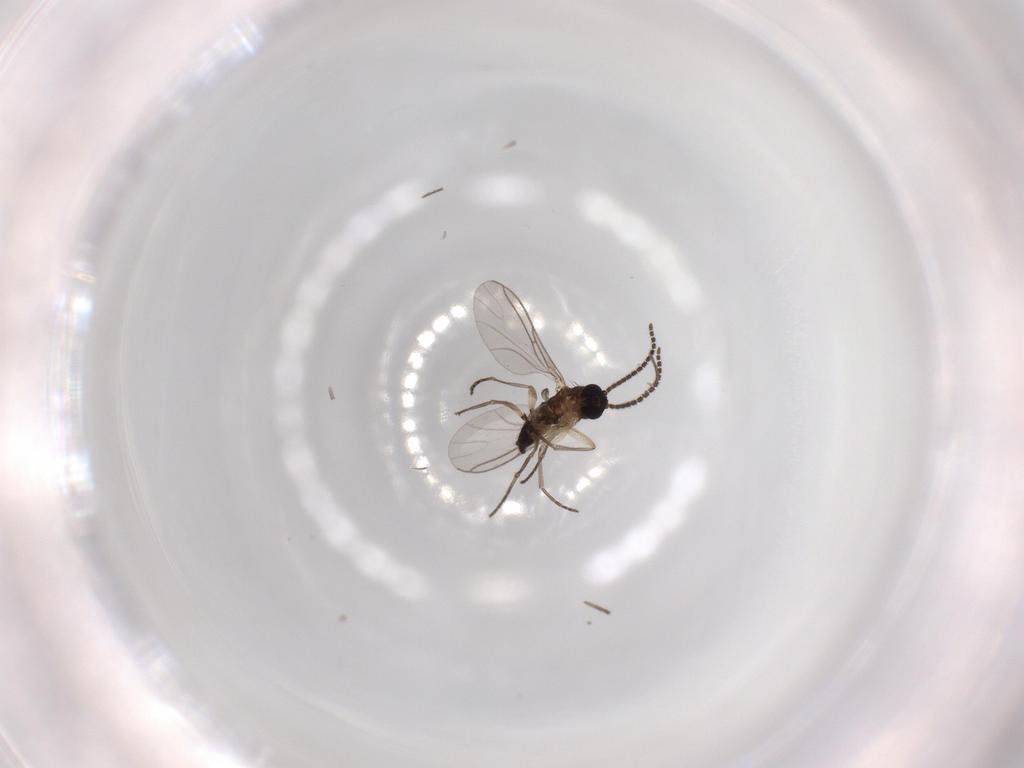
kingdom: Animalia
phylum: Arthropoda
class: Insecta
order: Diptera
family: Sciaridae
